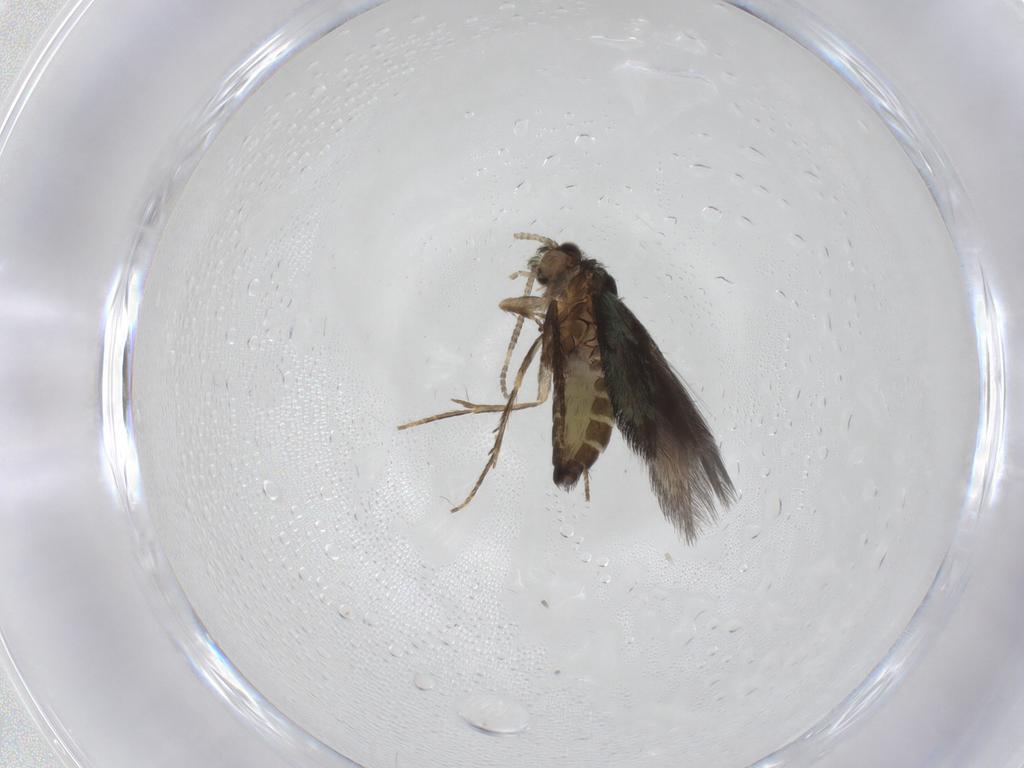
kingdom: Animalia
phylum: Arthropoda
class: Insecta
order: Trichoptera
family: Hydroptilidae
